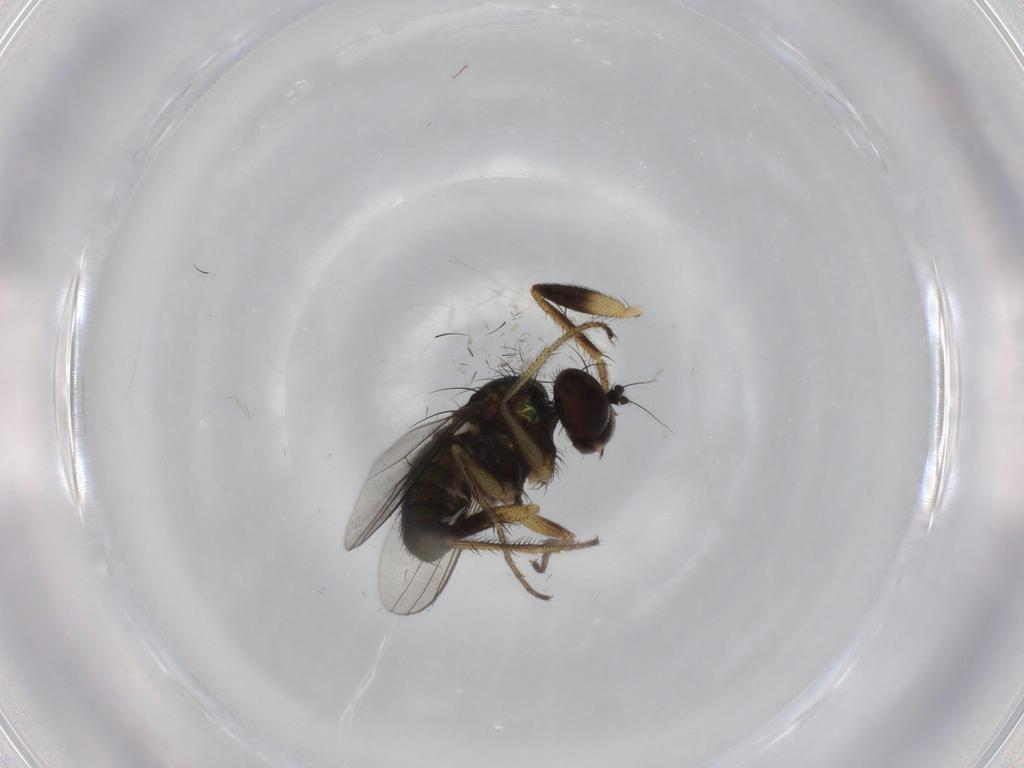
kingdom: Animalia
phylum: Arthropoda
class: Insecta
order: Diptera
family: Dolichopodidae
